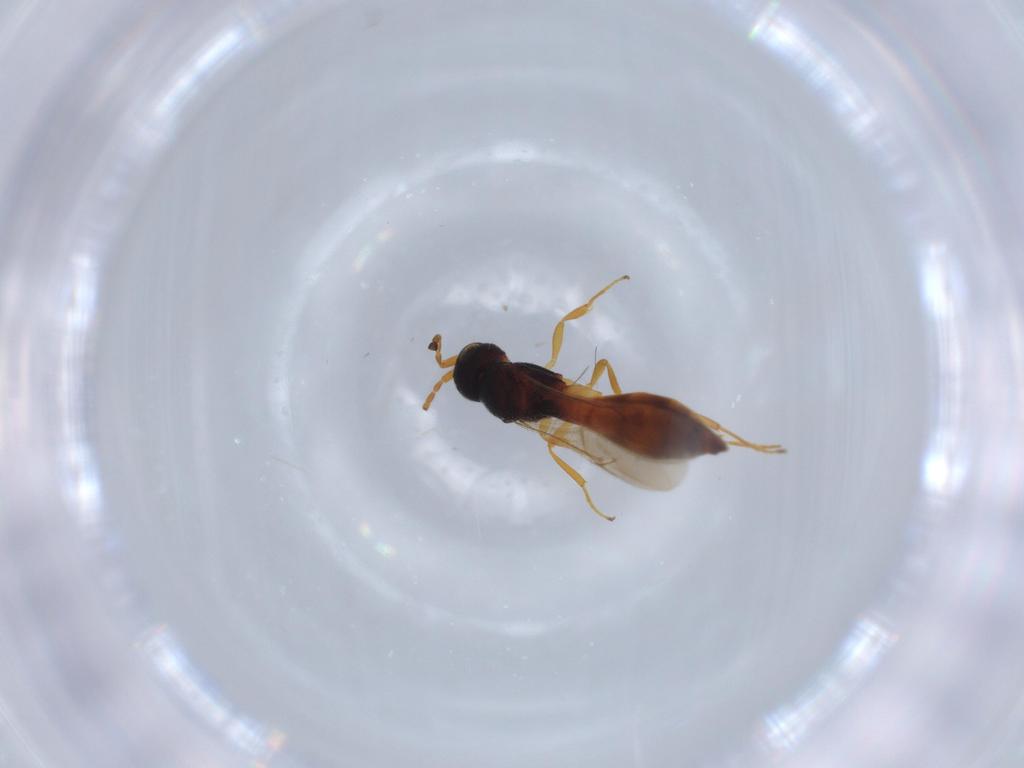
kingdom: Animalia
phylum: Arthropoda
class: Insecta
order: Hymenoptera
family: Scelionidae
